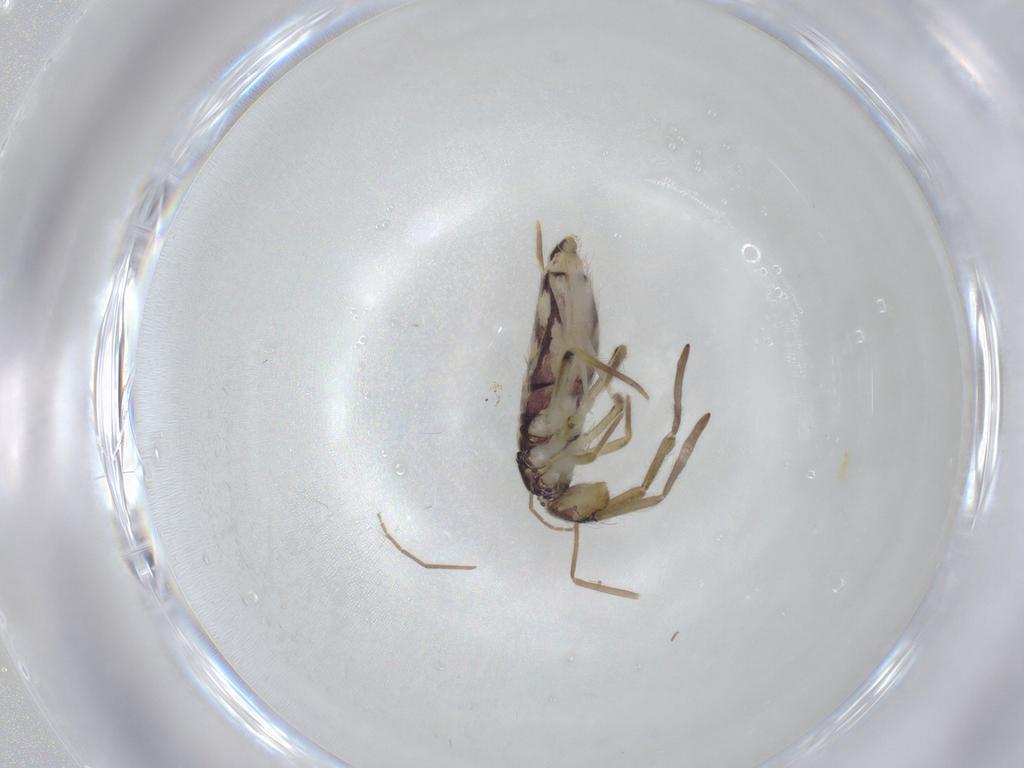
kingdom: Animalia
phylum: Arthropoda
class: Collembola
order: Entomobryomorpha
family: Entomobryidae
